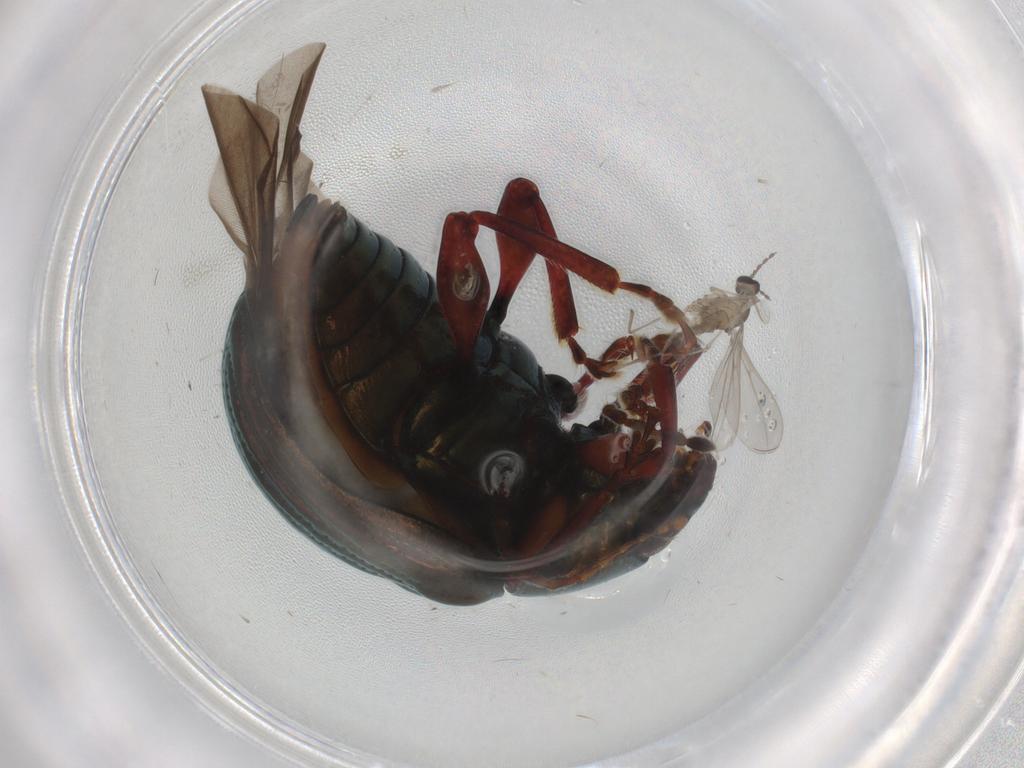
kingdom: Animalia
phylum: Arthropoda
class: Insecta
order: Coleoptera
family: Chrysomelidae
